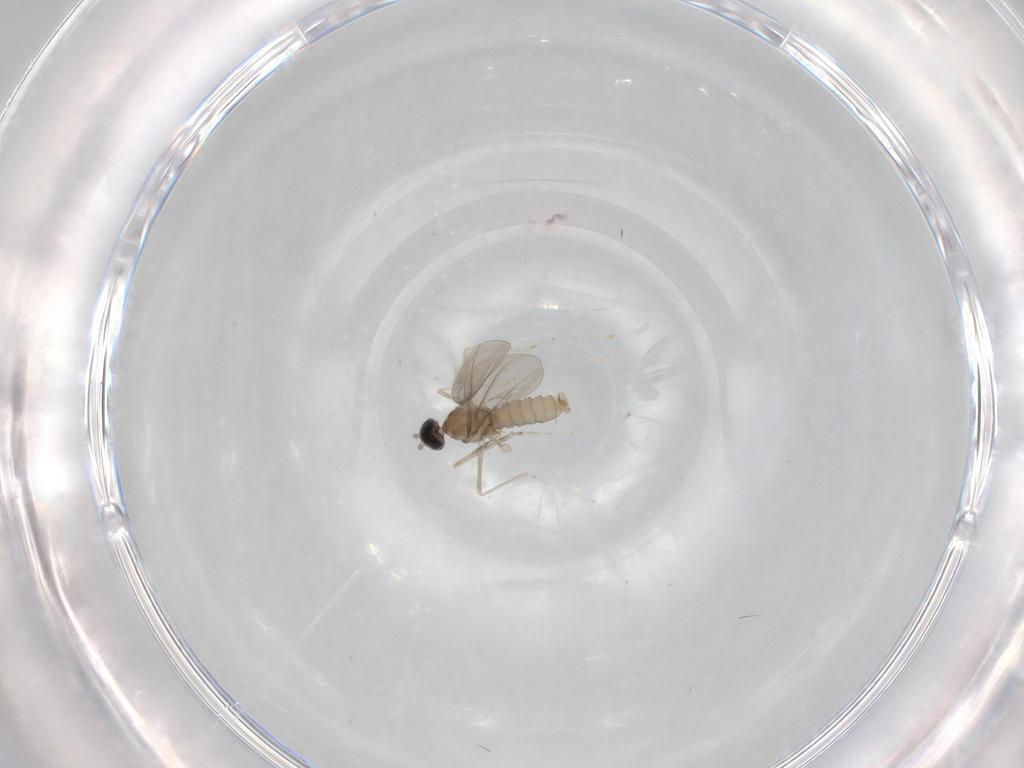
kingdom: Animalia
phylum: Arthropoda
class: Insecta
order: Diptera
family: Cecidomyiidae
